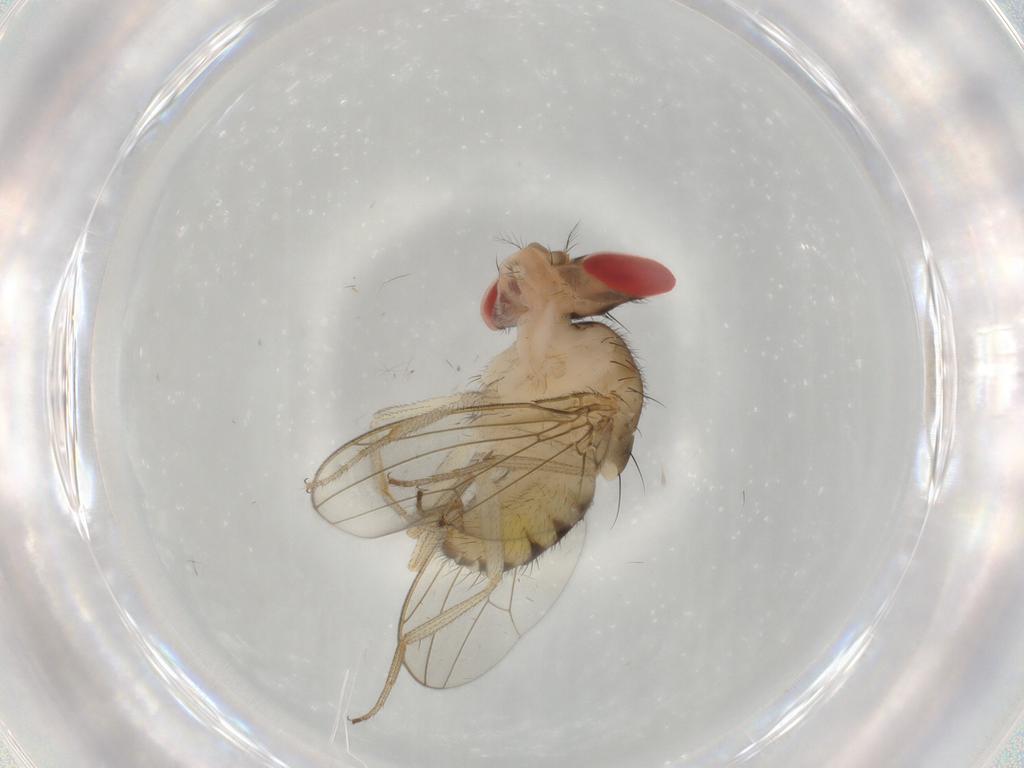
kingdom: Animalia
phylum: Arthropoda
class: Insecta
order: Diptera
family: Drosophilidae
